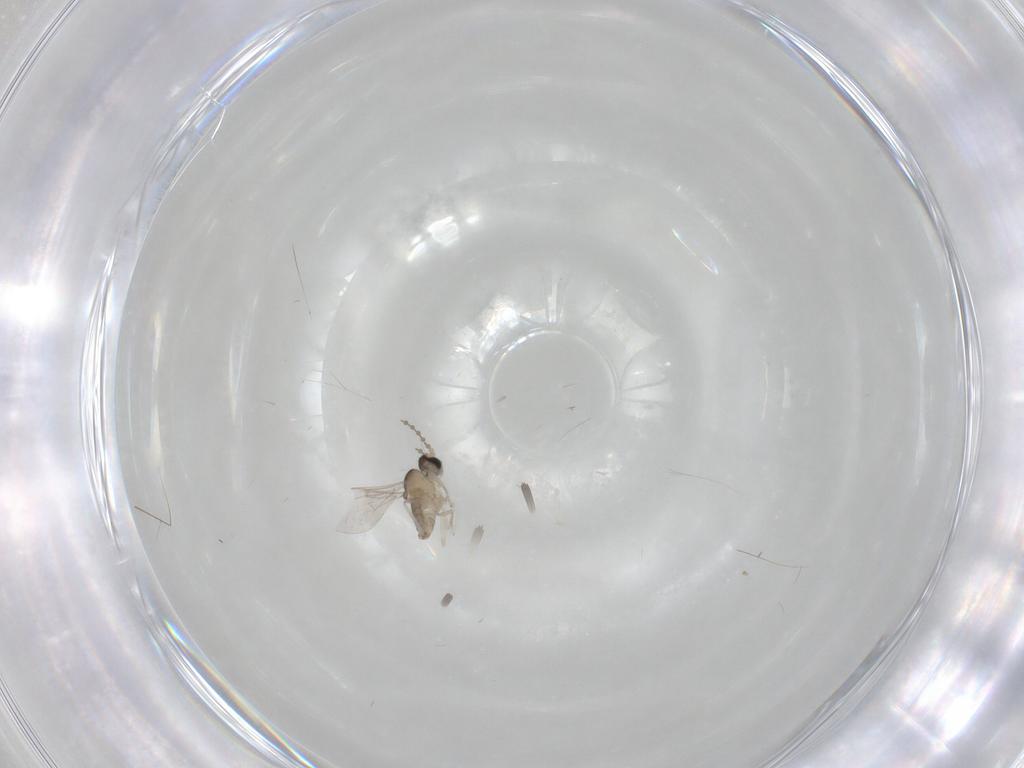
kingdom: Animalia
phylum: Arthropoda
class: Insecta
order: Diptera
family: Cecidomyiidae
